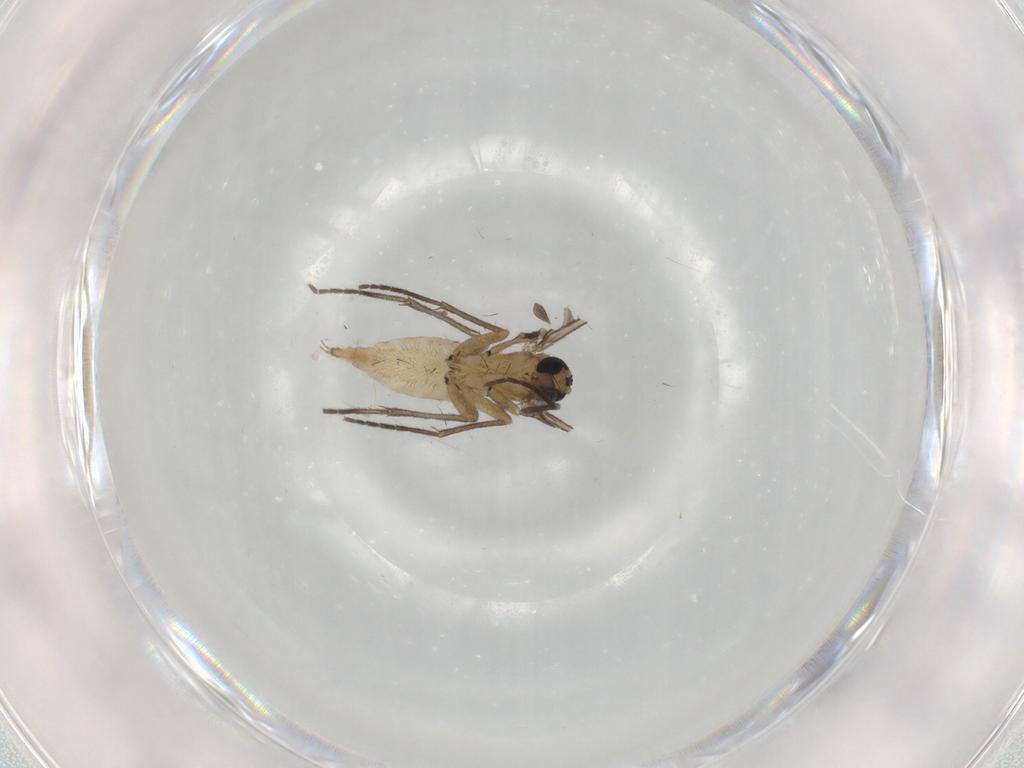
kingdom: Animalia
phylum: Arthropoda
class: Insecta
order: Diptera
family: Sciaridae
